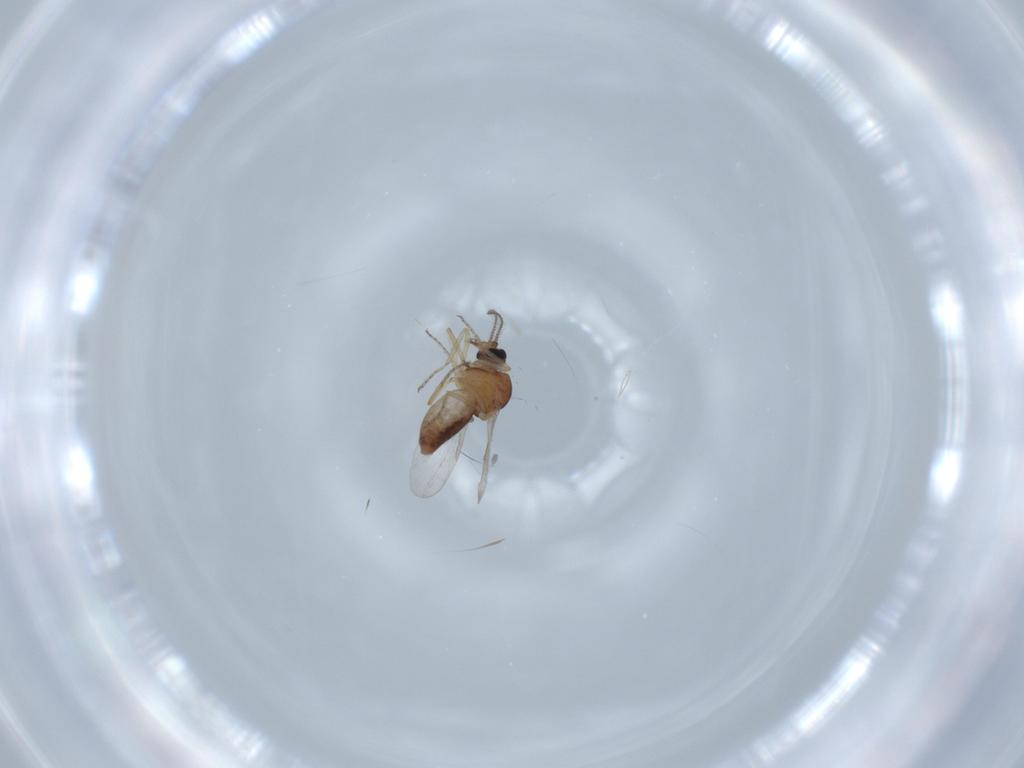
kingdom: Animalia
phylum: Arthropoda
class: Insecta
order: Diptera
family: Ceratopogonidae
